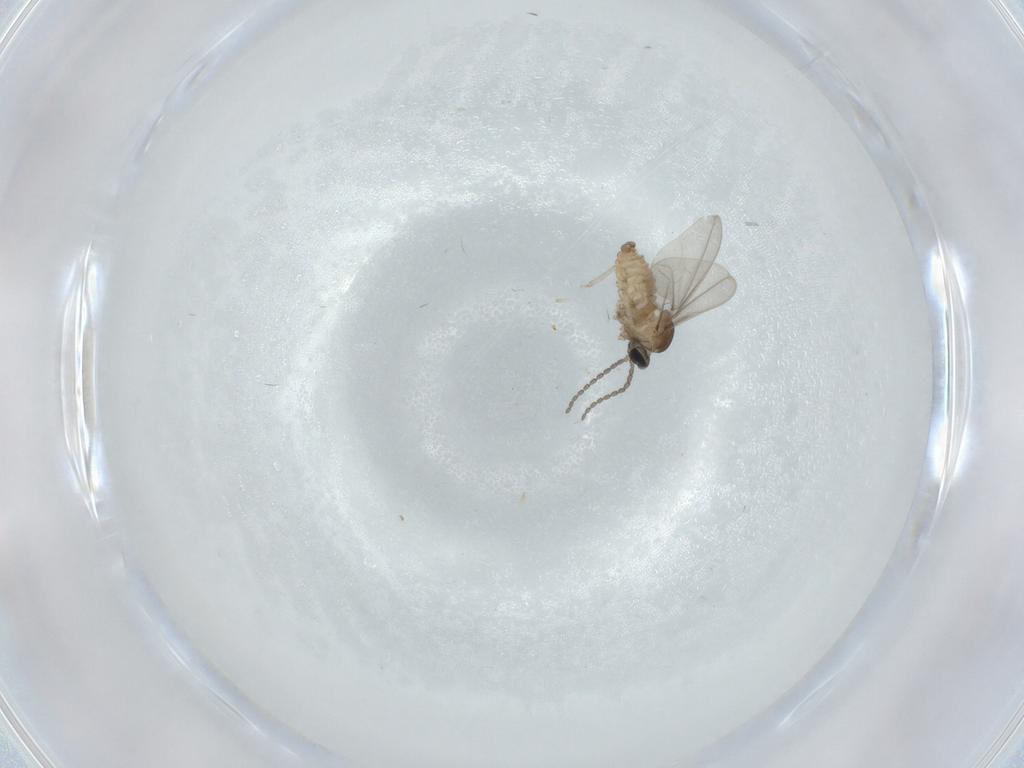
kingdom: Animalia
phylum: Arthropoda
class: Insecta
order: Diptera
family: Cecidomyiidae
